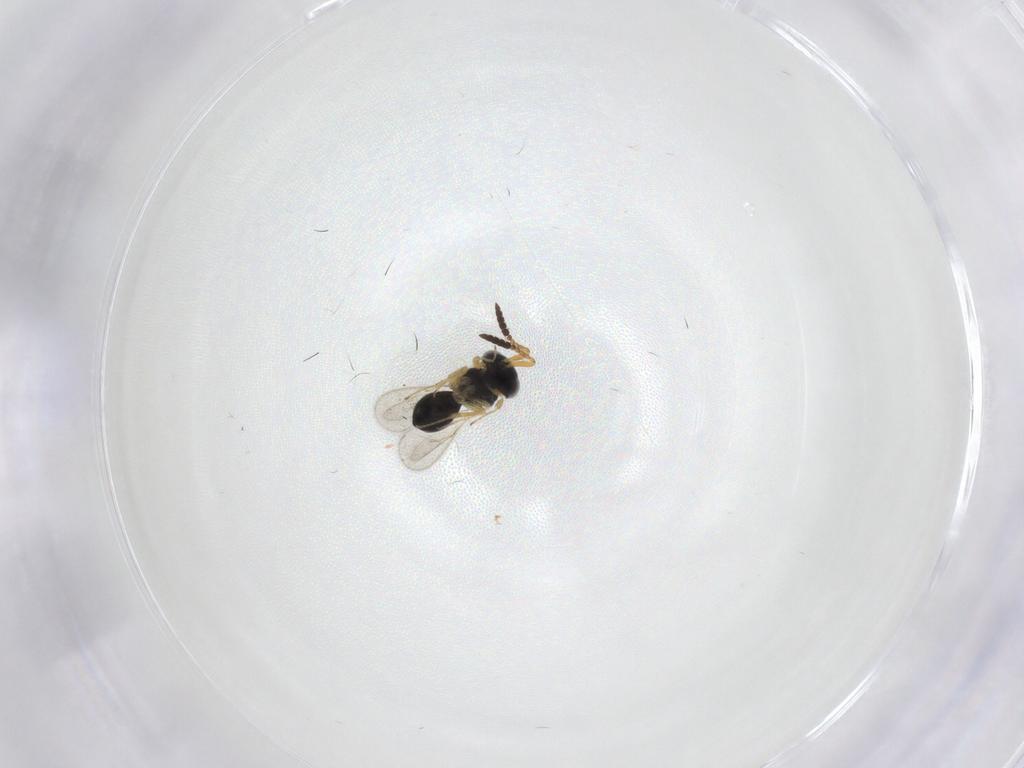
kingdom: Animalia
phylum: Arthropoda
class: Insecta
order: Hymenoptera
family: Scelionidae
